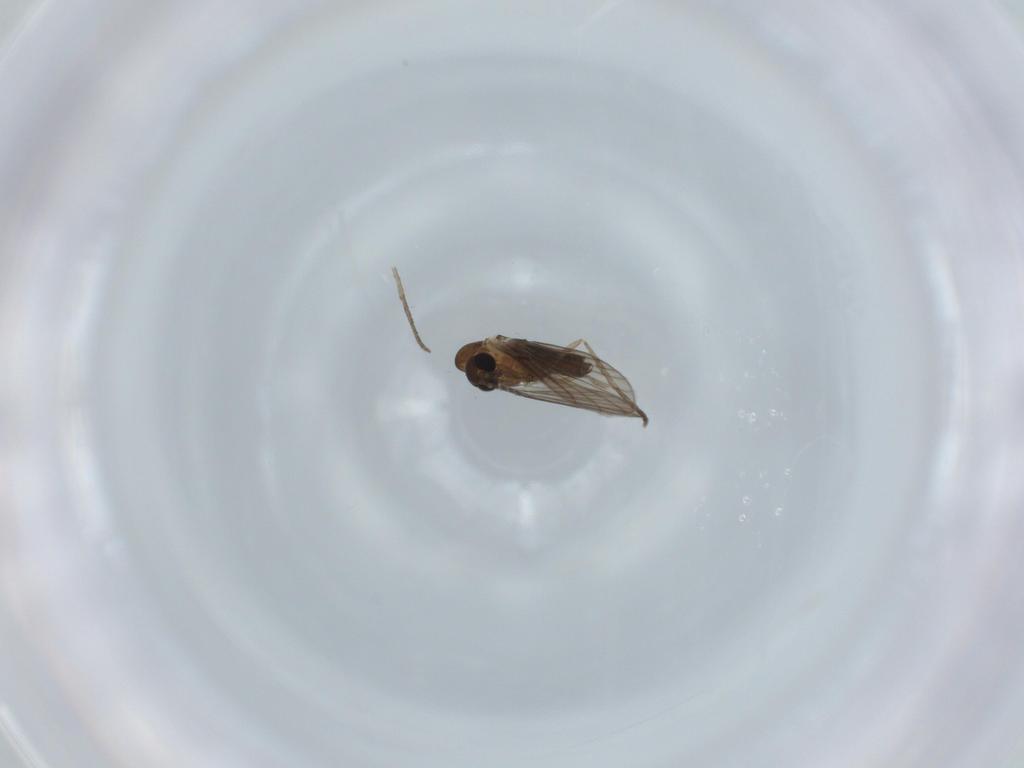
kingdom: Animalia
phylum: Arthropoda
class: Insecta
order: Diptera
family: Psychodidae
